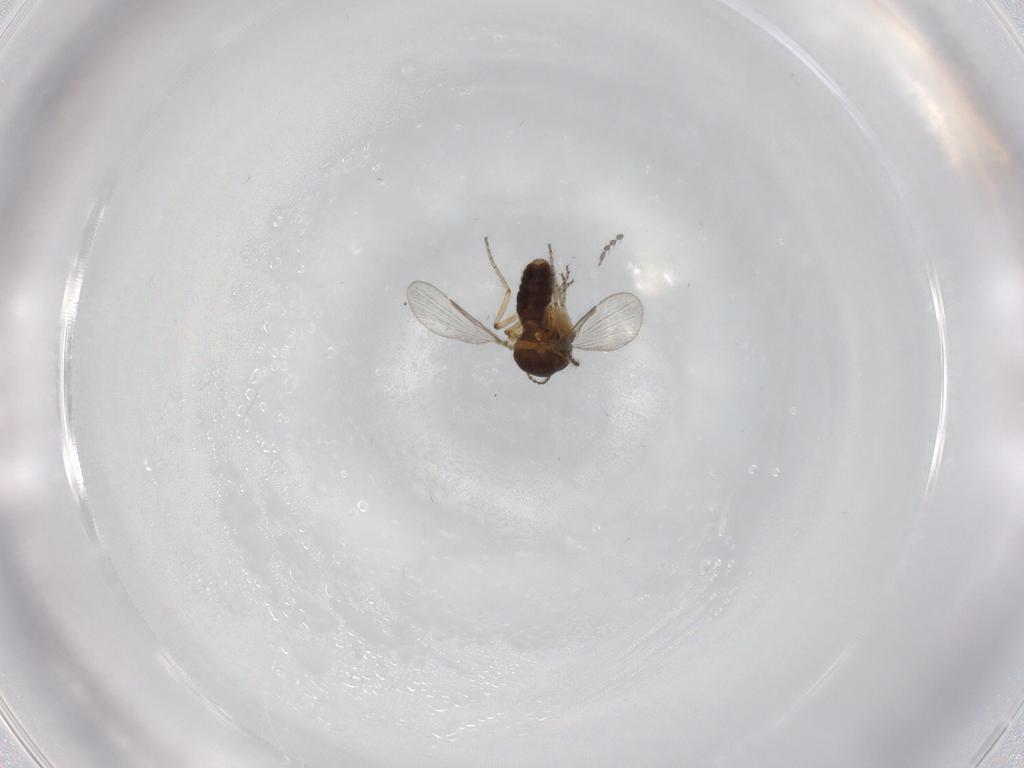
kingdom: Animalia
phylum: Arthropoda
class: Insecta
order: Diptera
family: Ceratopogonidae
